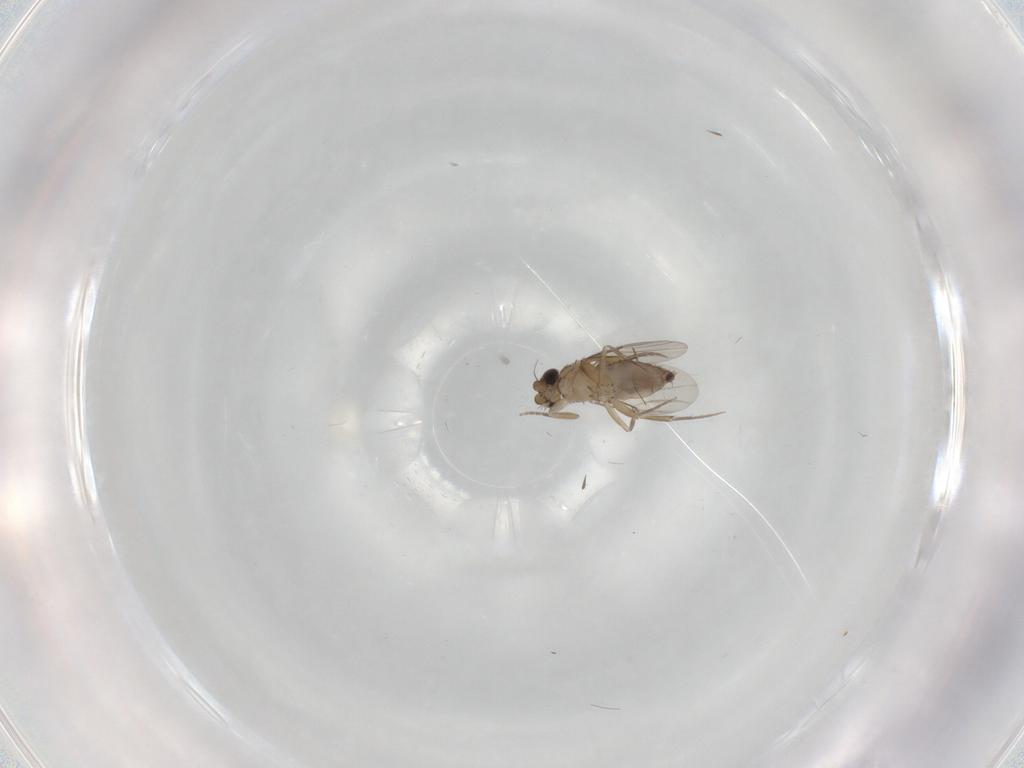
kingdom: Animalia
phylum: Arthropoda
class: Insecta
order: Diptera
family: Phoridae
